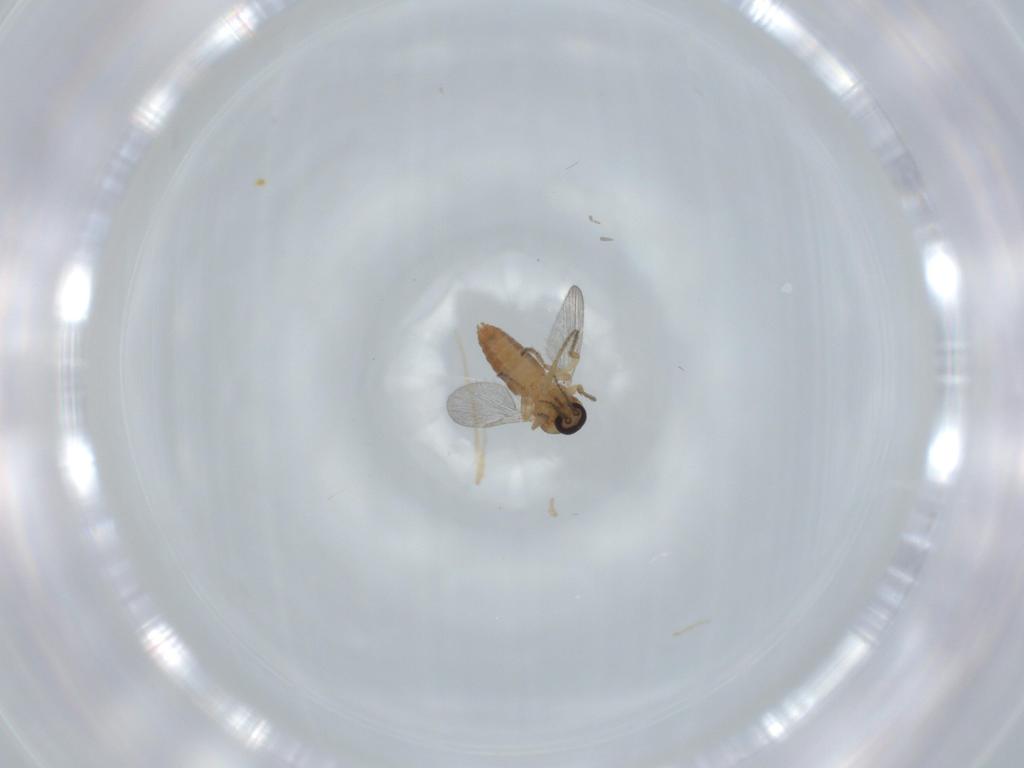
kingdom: Animalia
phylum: Arthropoda
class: Insecta
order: Diptera
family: Ceratopogonidae
